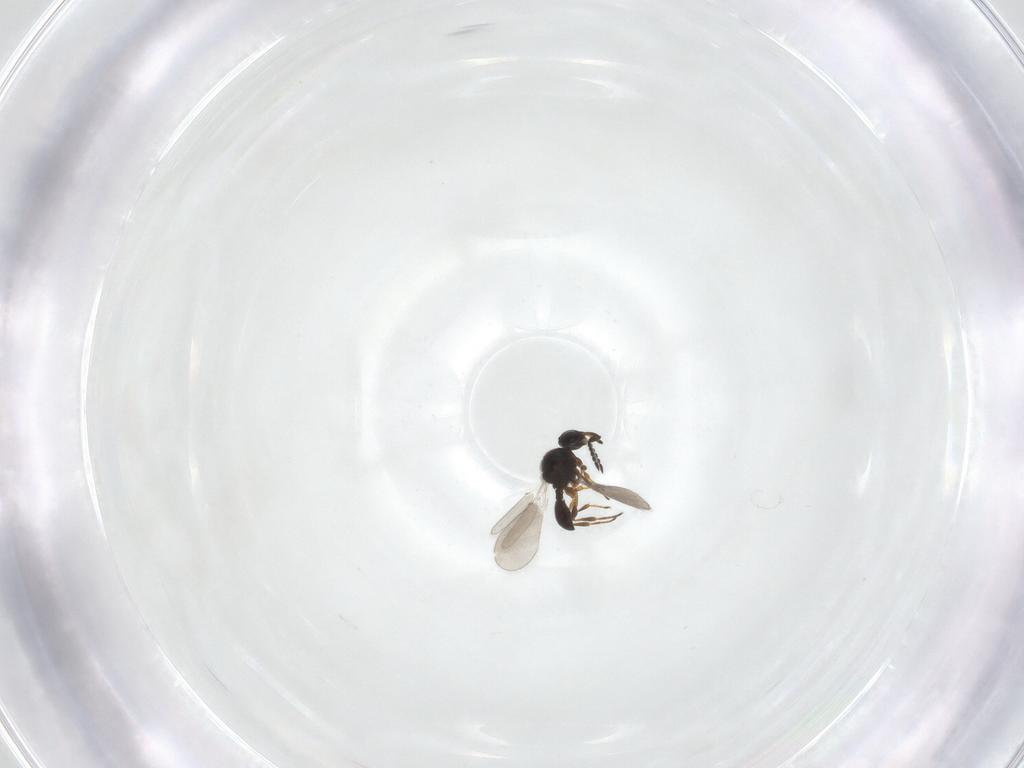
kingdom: Animalia
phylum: Arthropoda
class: Insecta
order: Hymenoptera
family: Platygastridae
